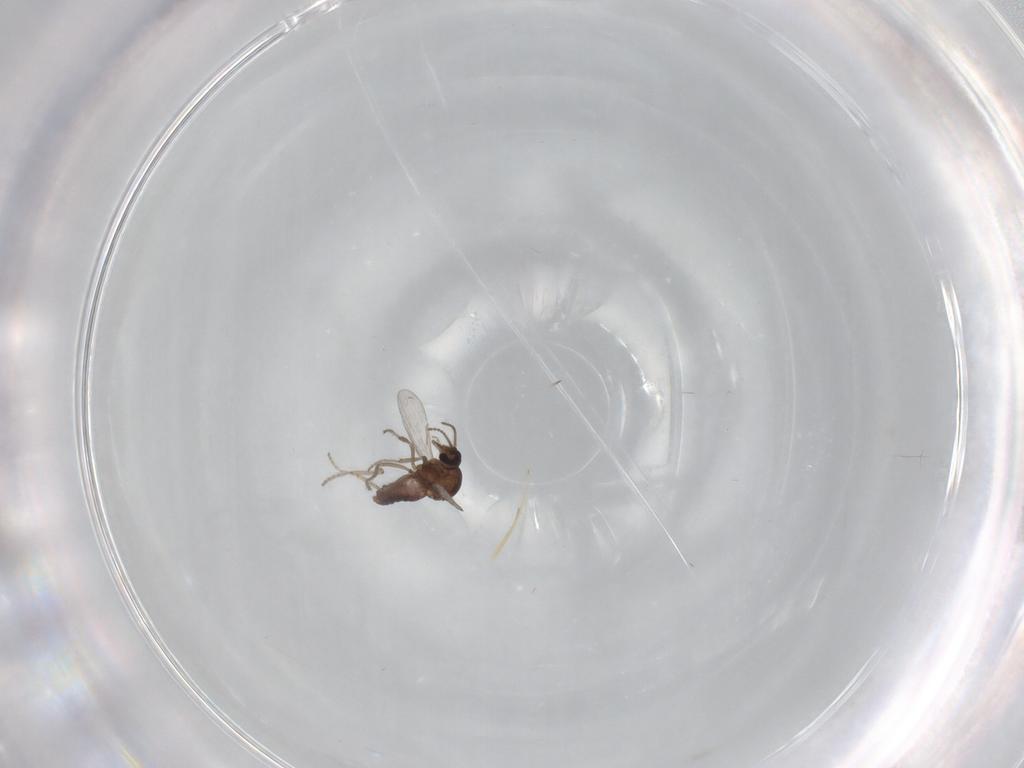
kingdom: Animalia
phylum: Arthropoda
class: Insecta
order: Diptera
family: Ceratopogonidae
